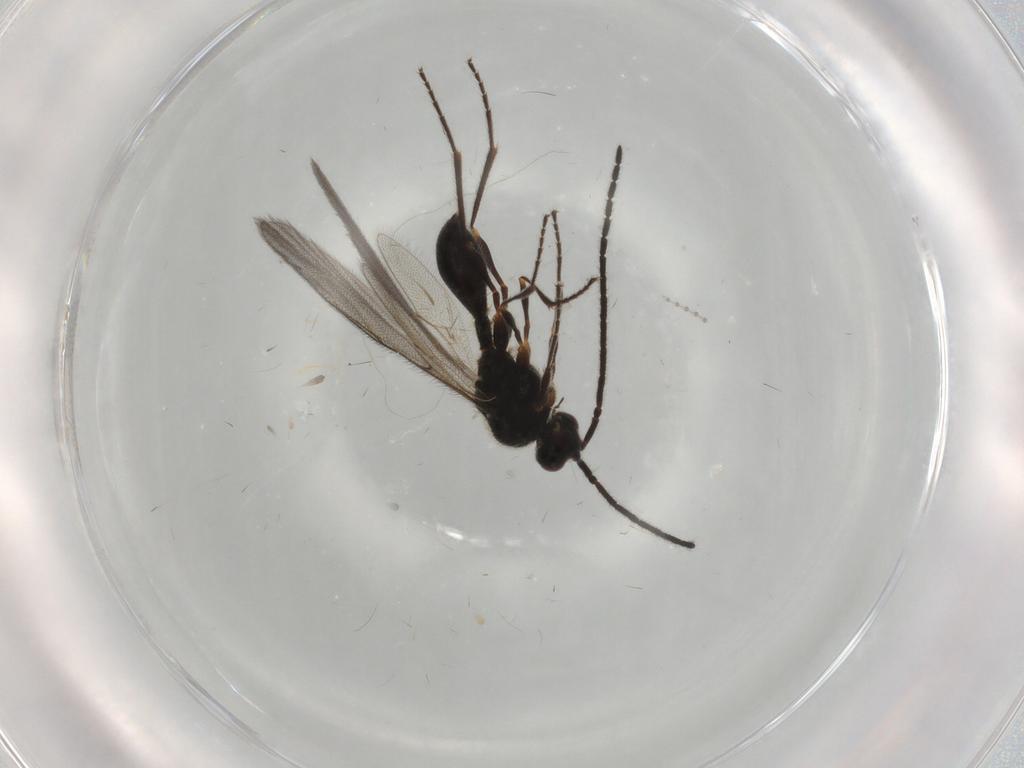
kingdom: Animalia
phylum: Arthropoda
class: Insecta
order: Hymenoptera
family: Diapriidae
